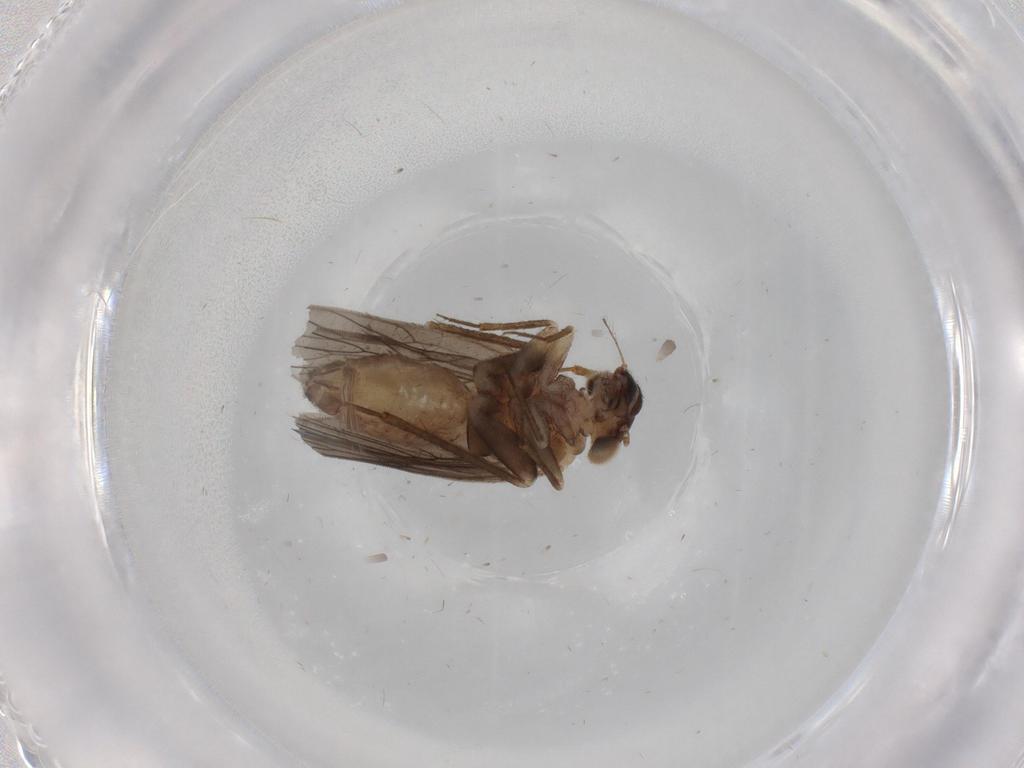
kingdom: Animalia
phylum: Arthropoda
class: Insecta
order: Psocodea
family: Lepidopsocidae
